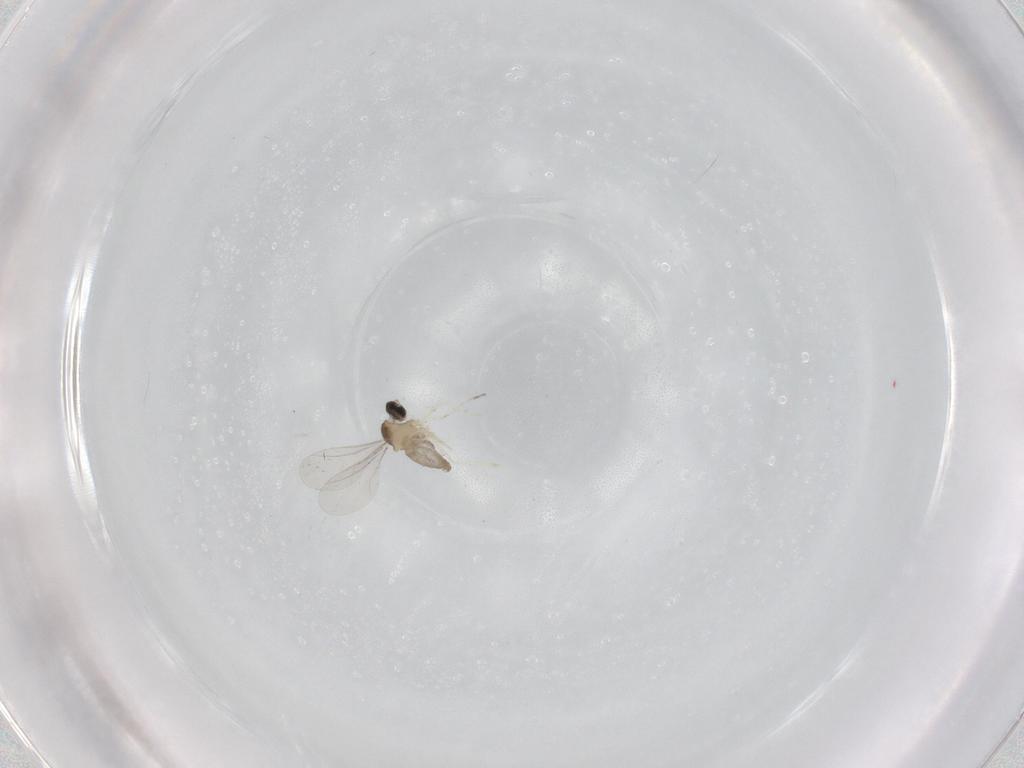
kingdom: Animalia
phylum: Arthropoda
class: Insecta
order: Diptera
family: Cecidomyiidae
